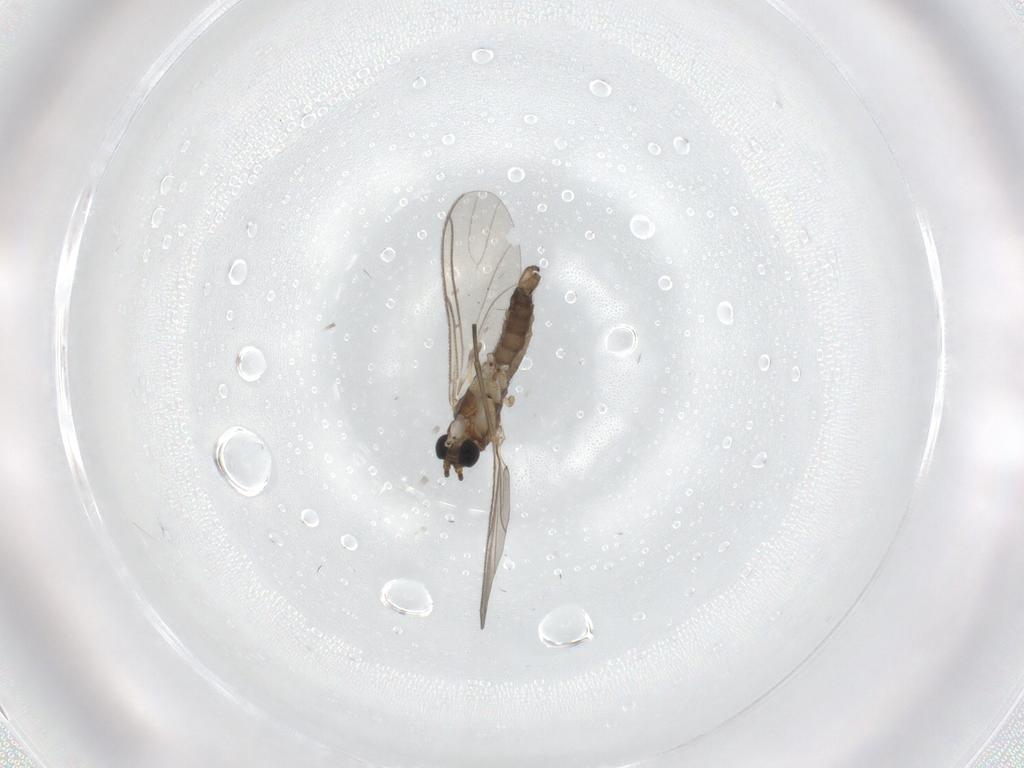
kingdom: Animalia
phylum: Arthropoda
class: Insecta
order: Diptera
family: Sciaridae
